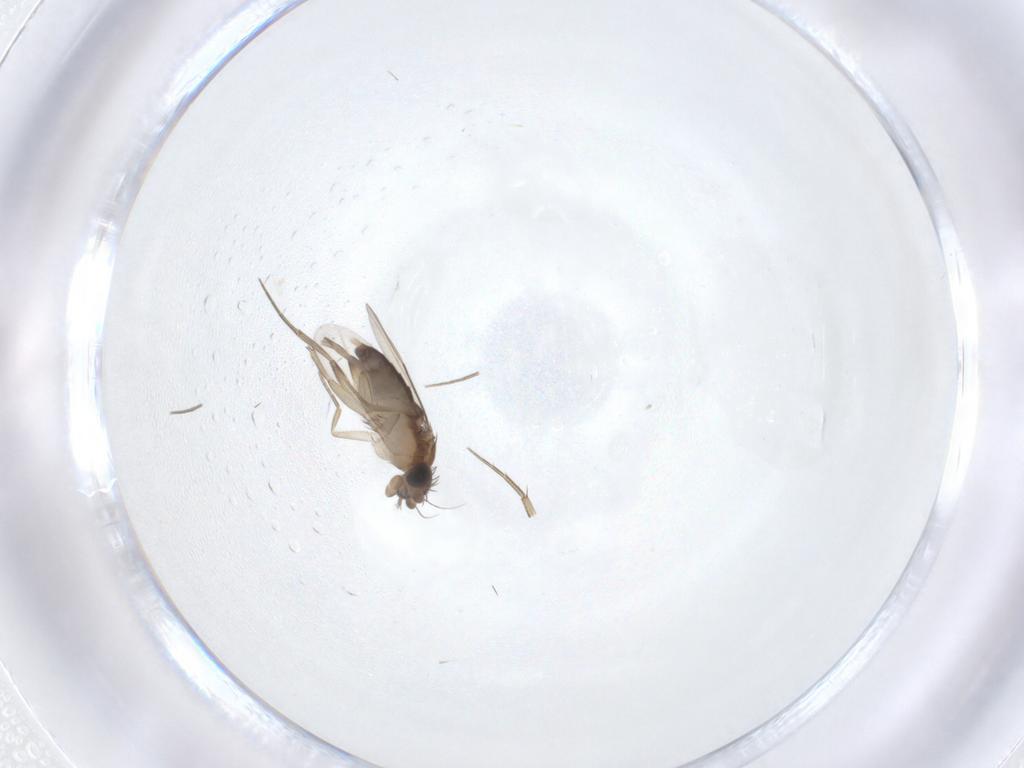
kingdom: Animalia
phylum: Arthropoda
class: Insecta
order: Diptera
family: Phoridae
